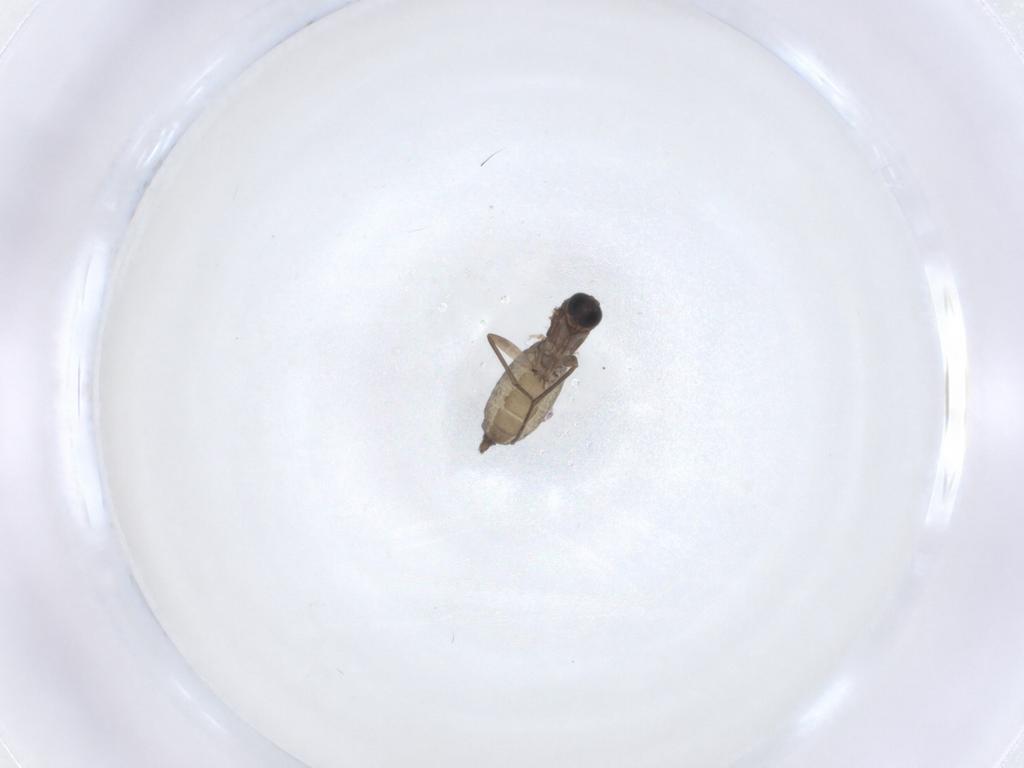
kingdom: Animalia
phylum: Arthropoda
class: Insecta
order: Diptera
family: Sciaridae
